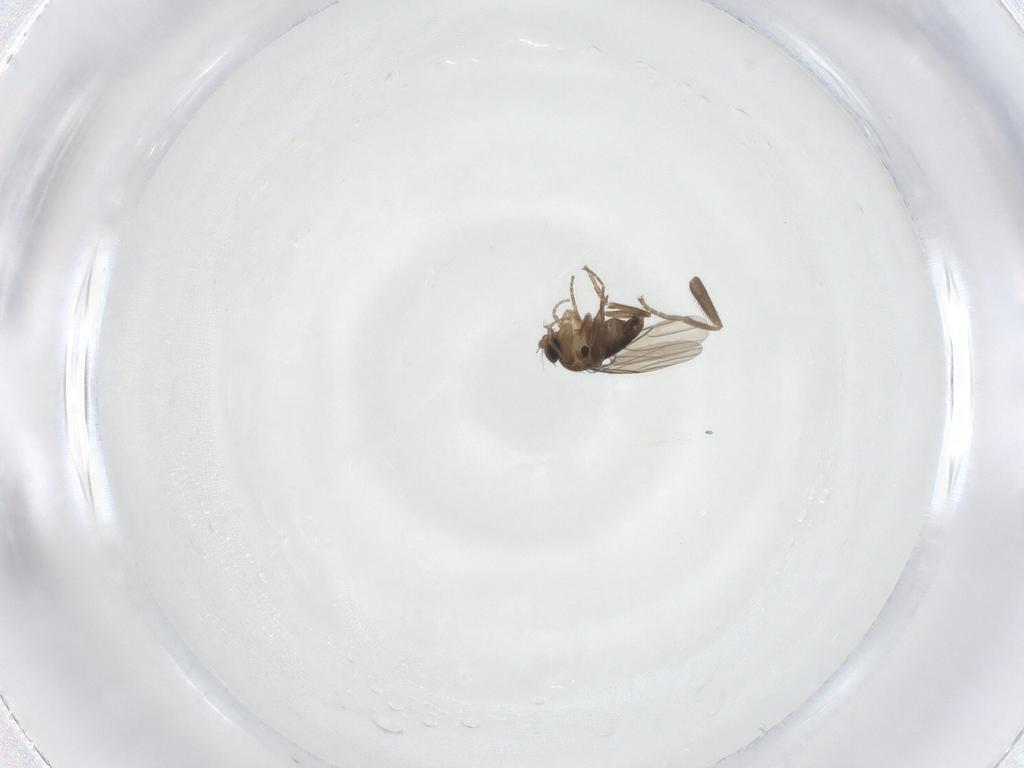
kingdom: Animalia
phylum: Arthropoda
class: Insecta
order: Diptera
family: Phoridae
